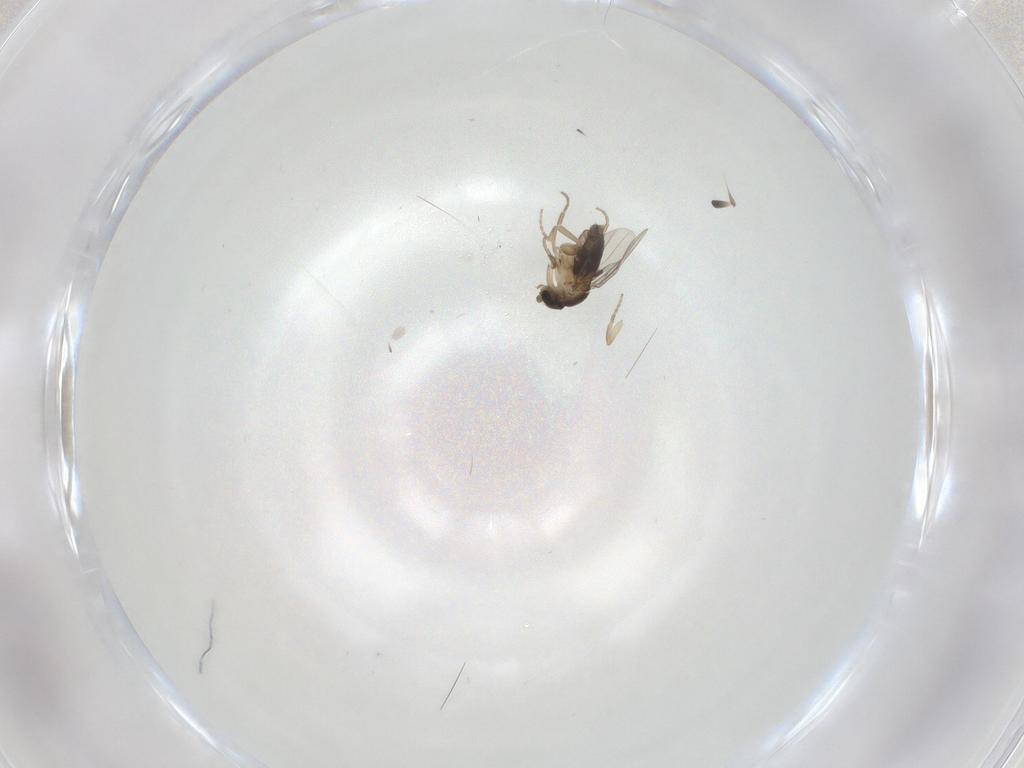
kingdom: Animalia
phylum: Arthropoda
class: Insecta
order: Diptera
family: Phoridae
